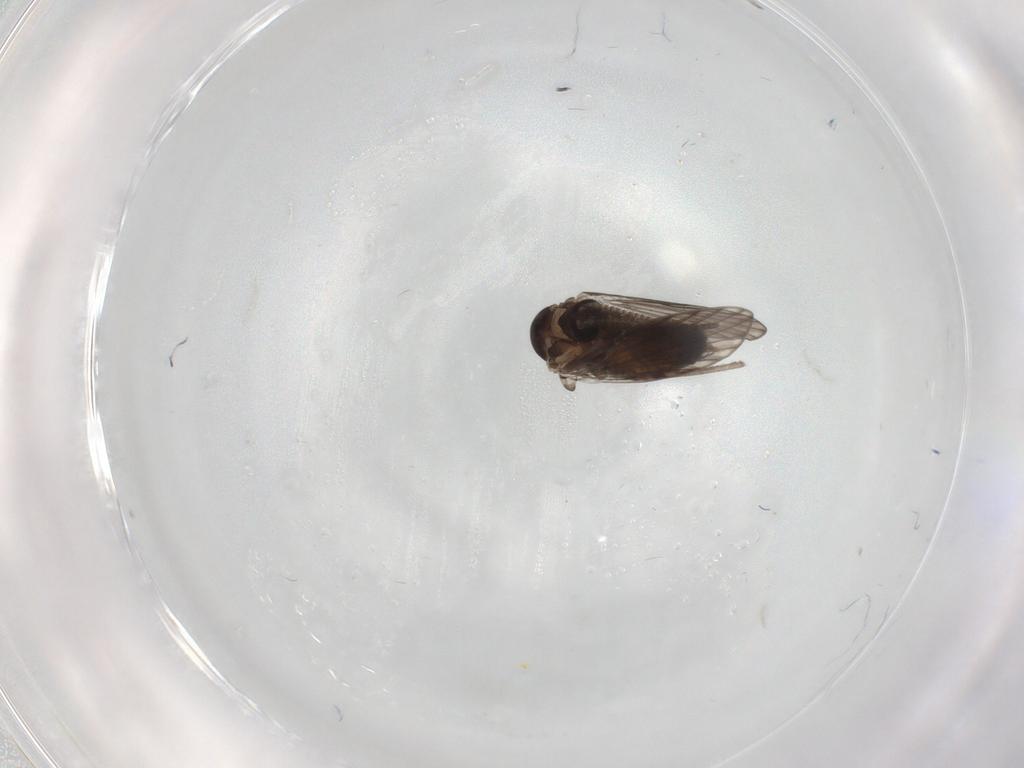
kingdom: Animalia
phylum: Arthropoda
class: Insecta
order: Diptera
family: Psychodidae
